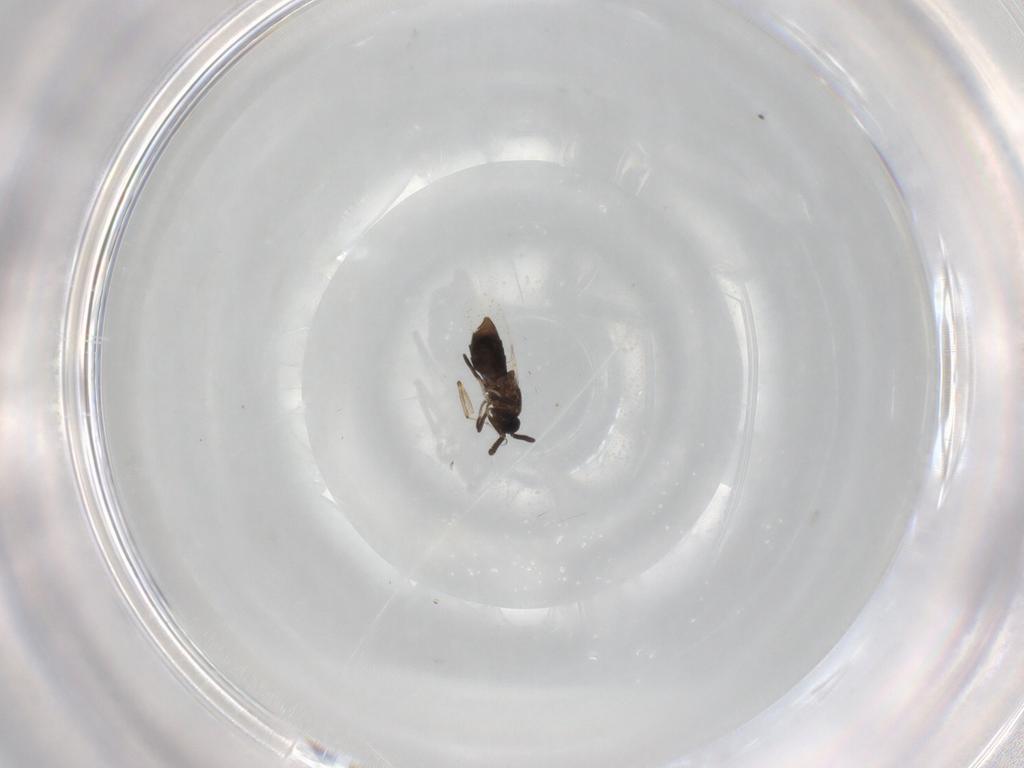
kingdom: Animalia
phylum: Arthropoda
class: Insecta
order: Diptera
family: Scatopsidae
